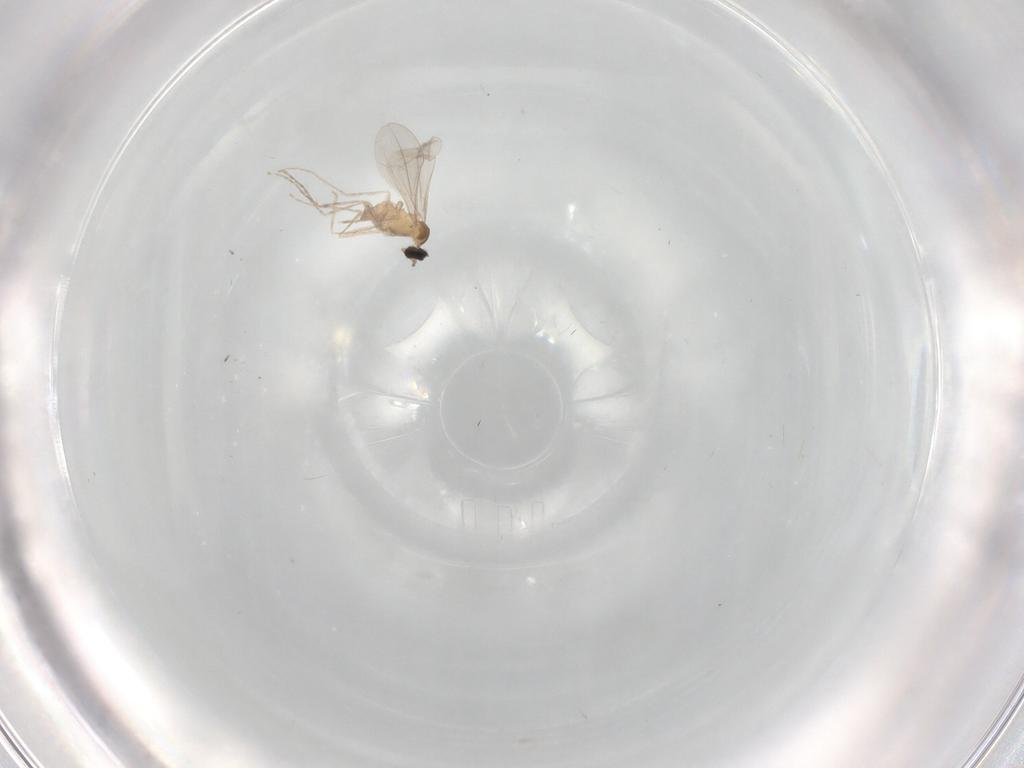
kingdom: Animalia
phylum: Arthropoda
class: Insecta
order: Diptera
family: Cecidomyiidae
